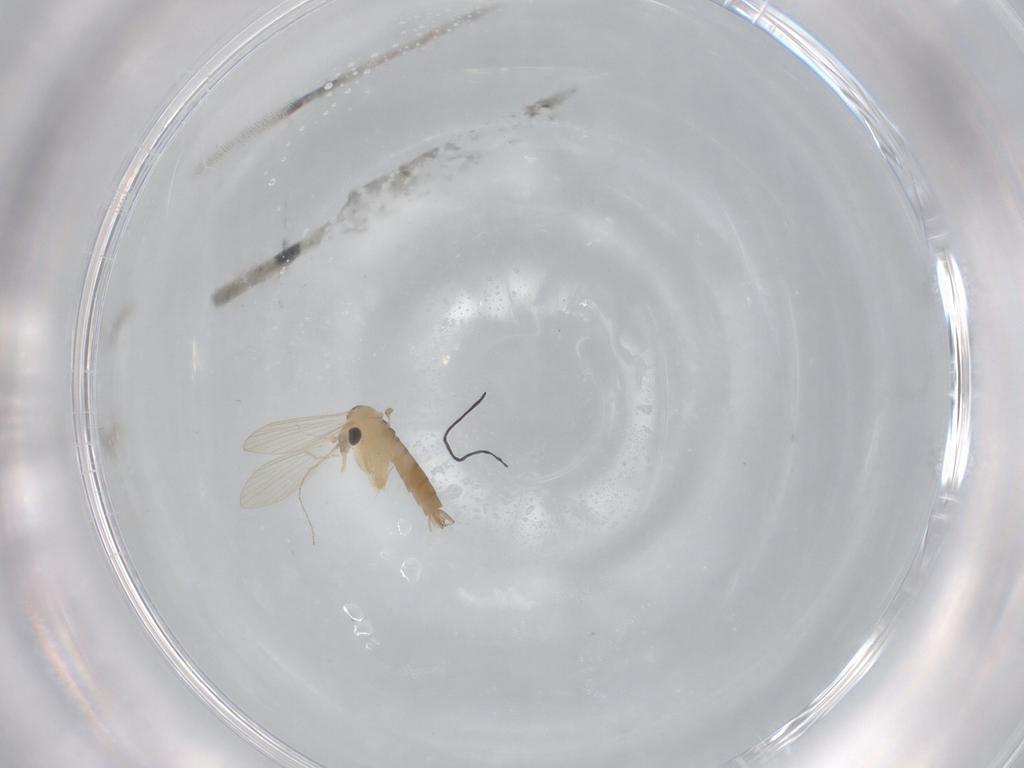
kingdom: Animalia
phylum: Arthropoda
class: Insecta
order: Diptera
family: Psychodidae
